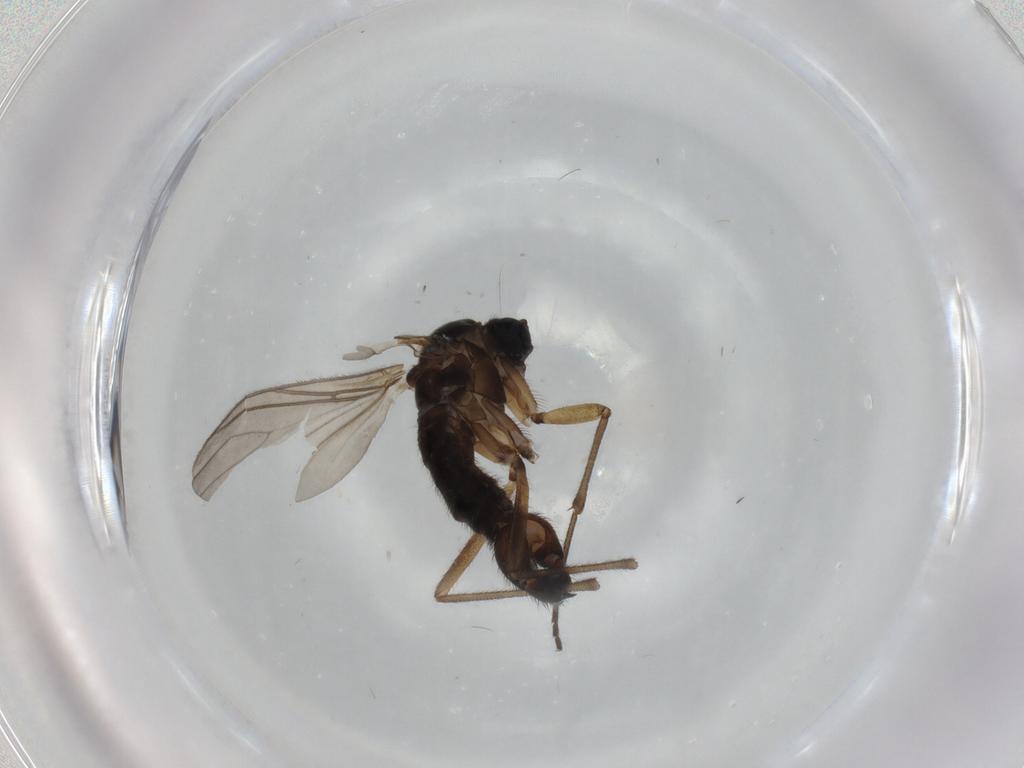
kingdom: Animalia
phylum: Arthropoda
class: Insecta
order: Diptera
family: Sciaridae
